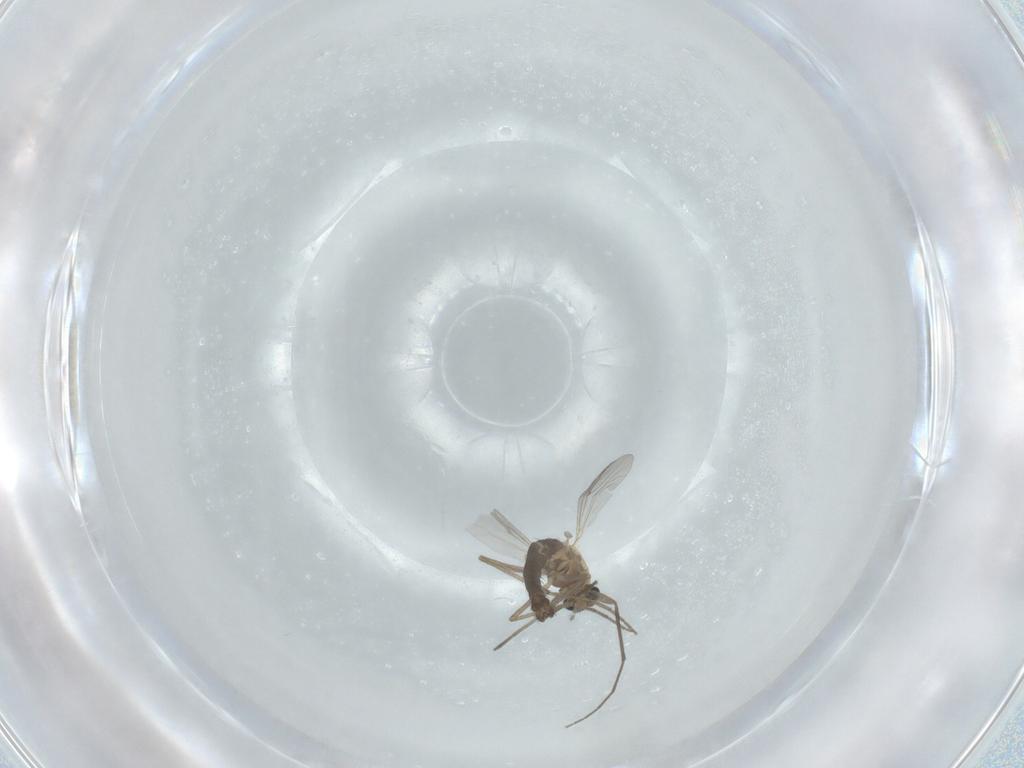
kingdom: Animalia
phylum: Arthropoda
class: Insecta
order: Diptera
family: Chironomidae
